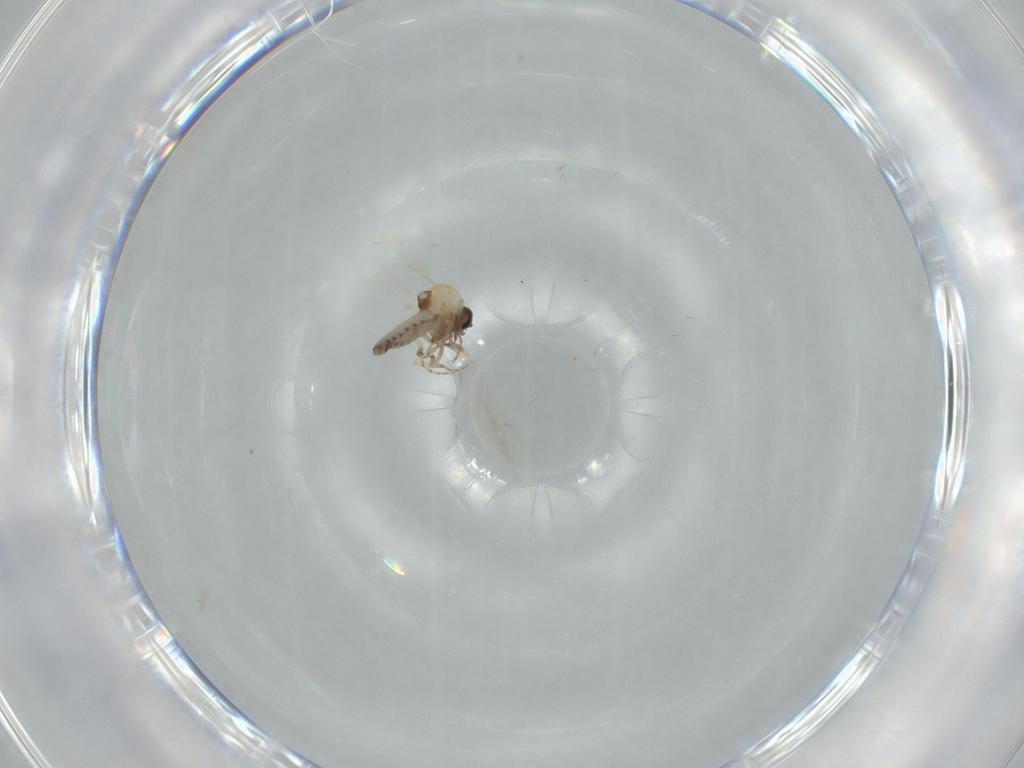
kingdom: Animalia
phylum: Arthropoda
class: Insecta
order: Diptera
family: Ceratopogonidae
